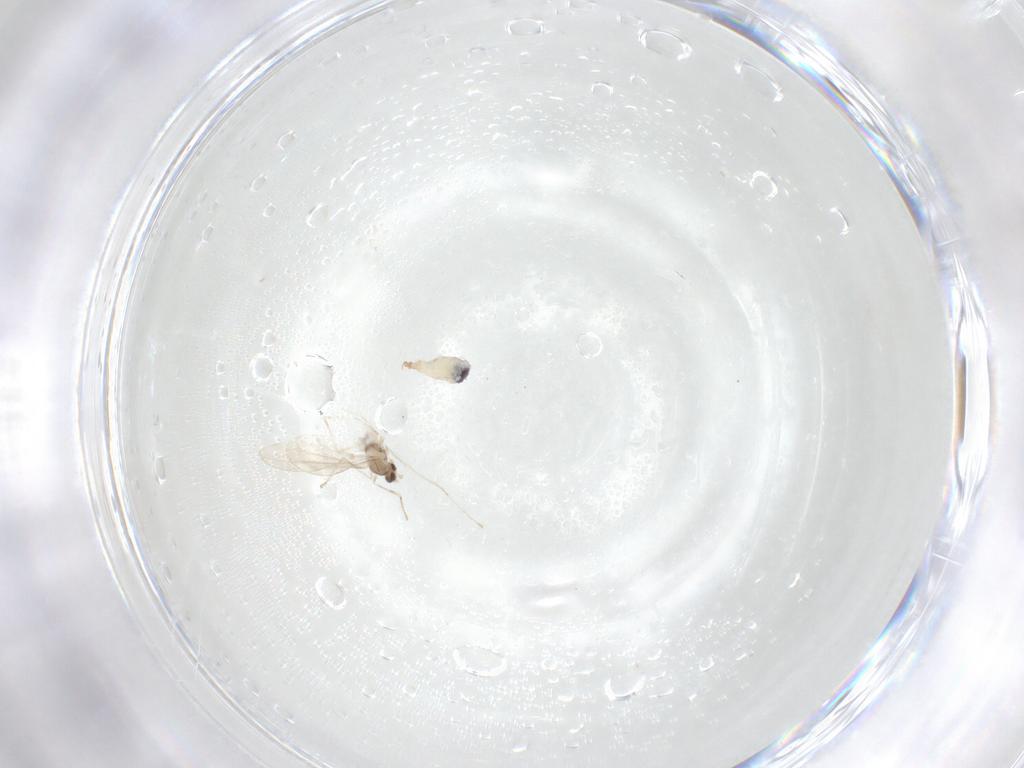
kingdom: Animalia
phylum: Arthropoda
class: Insecta
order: Diptera
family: Cecidomyiidae
